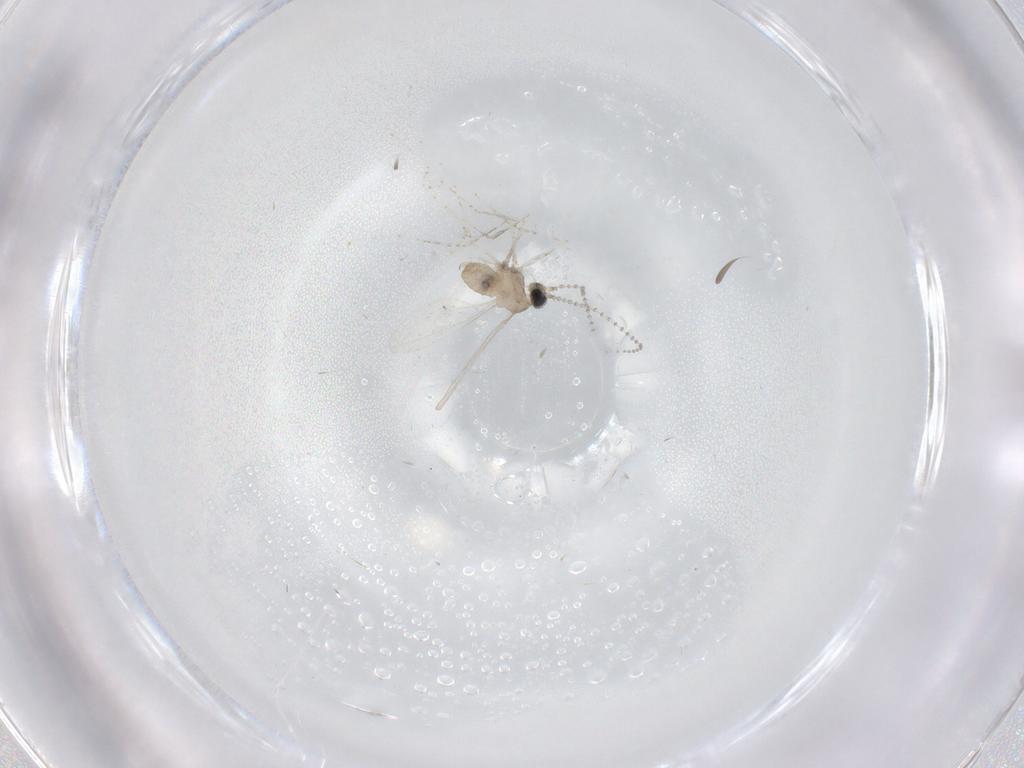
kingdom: Animalia
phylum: Arthropoda
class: Insecta
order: Diptera
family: Cecidomyiidae
